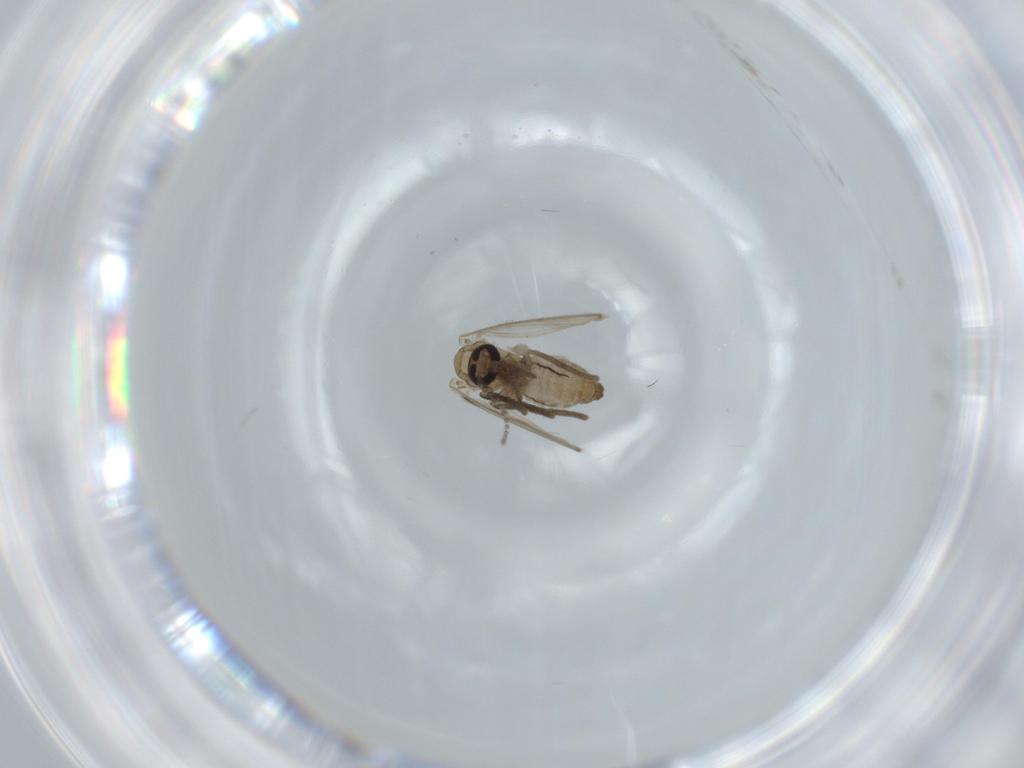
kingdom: Animalia
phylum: Arthropoda
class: Insecta
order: Diptera
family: Psychodidae
